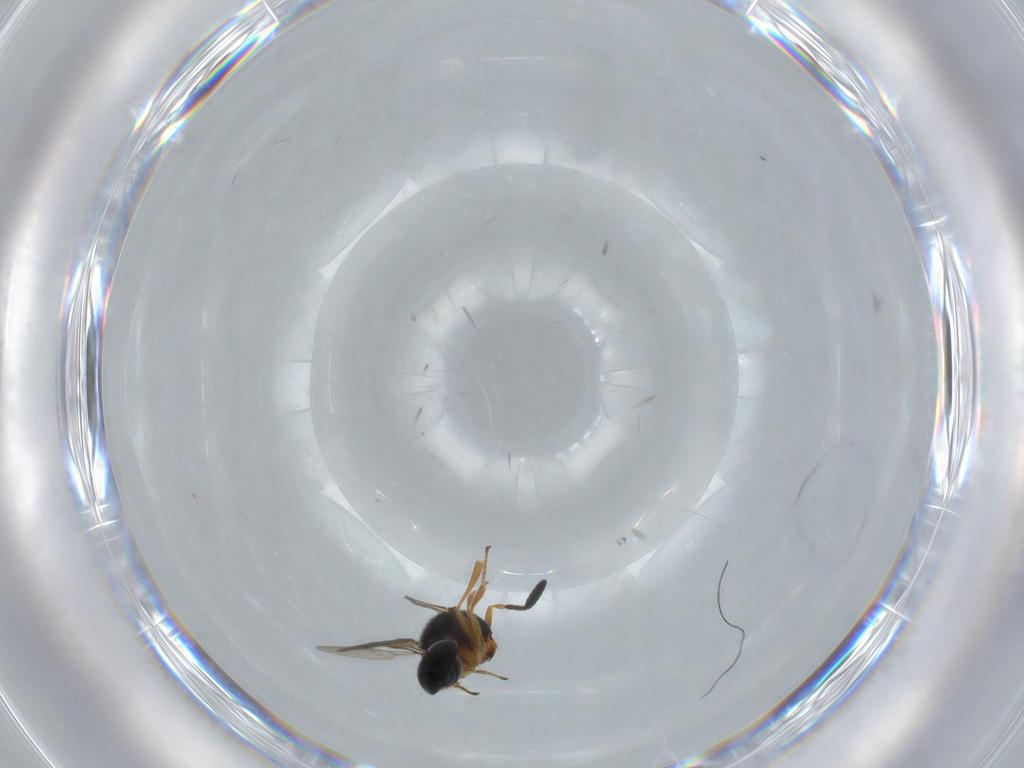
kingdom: Animalia
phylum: Arthropoda
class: Insecta
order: Hymenoptera
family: Scelionidae
